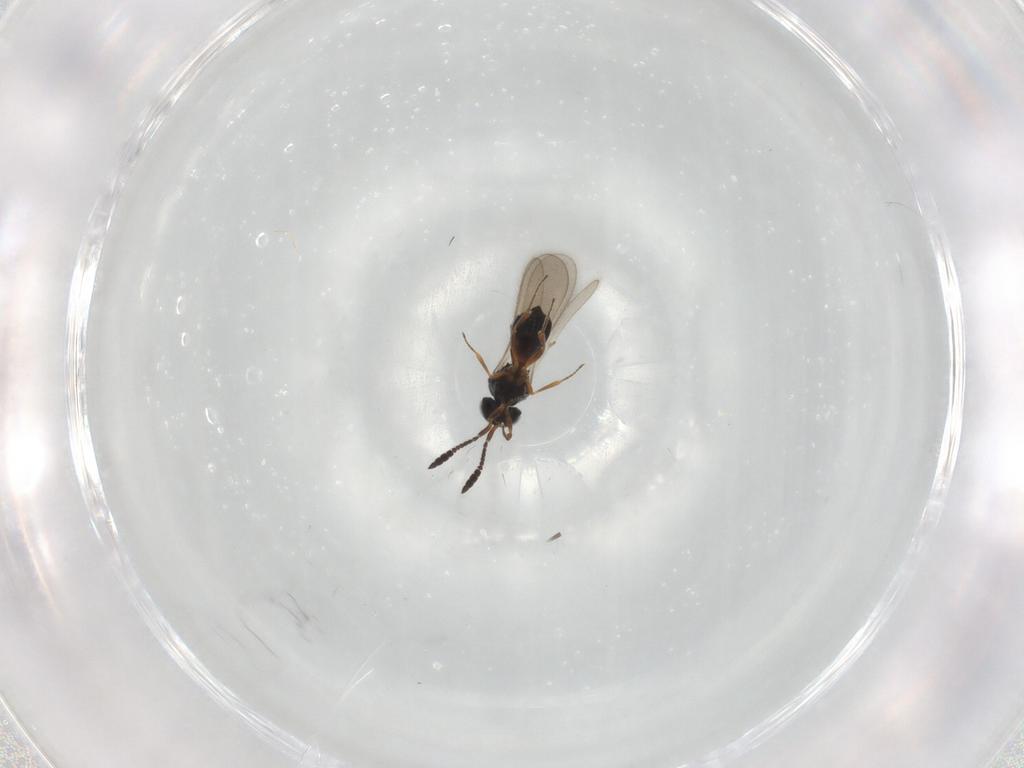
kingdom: Animalia
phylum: Arthropoda
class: Insecta
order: Hymenoptera
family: Scelionidae
